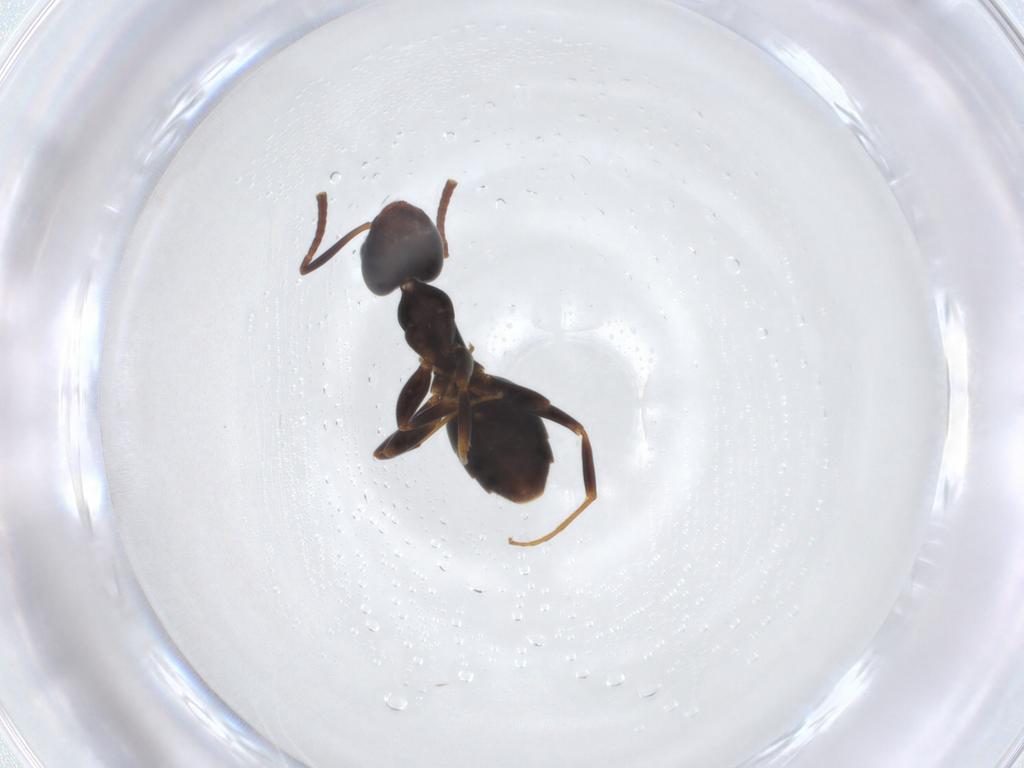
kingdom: Animalia
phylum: Arthropoda
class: Insecta
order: Hymenoptera
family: Formicidae
